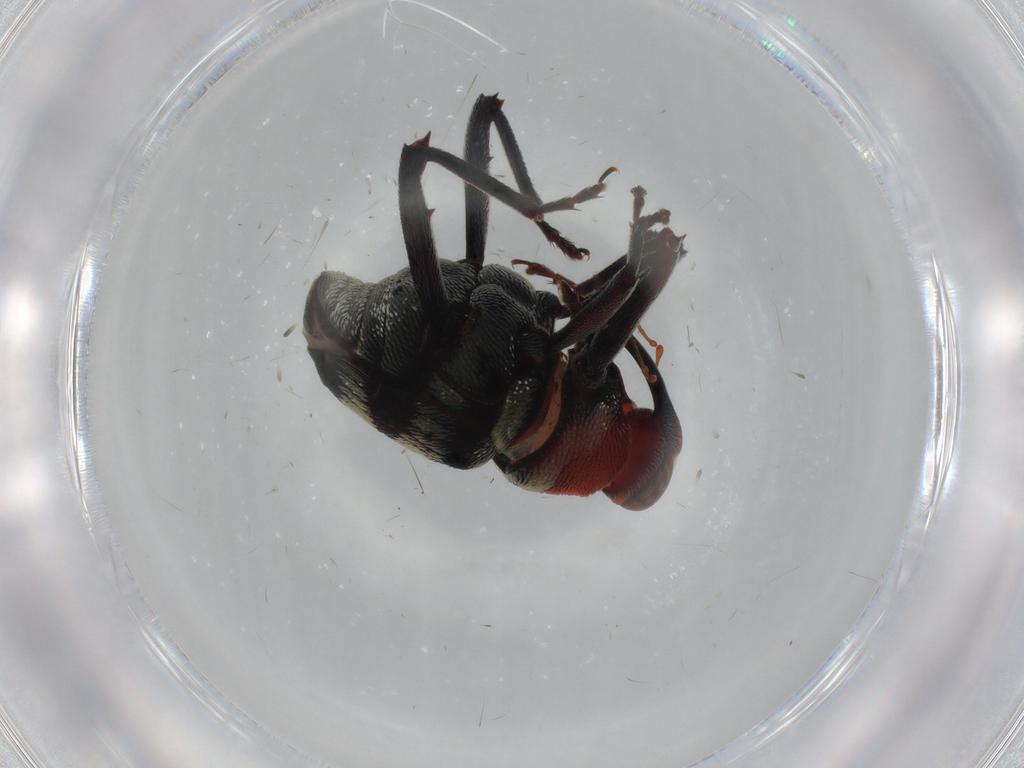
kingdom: Animalia
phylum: Arthropoda
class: Insecta
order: Coleoptera
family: Curculionidae
